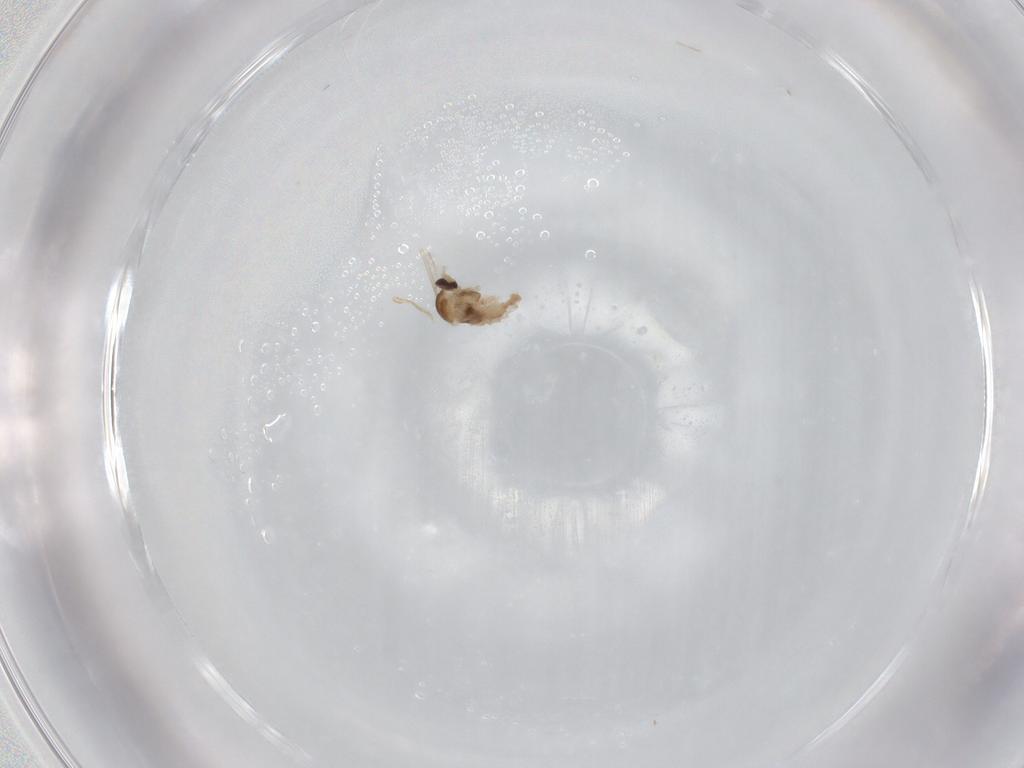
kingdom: Animalia
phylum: Arthropoda
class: Insecta
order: Diptera
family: Cecidomyiidae
